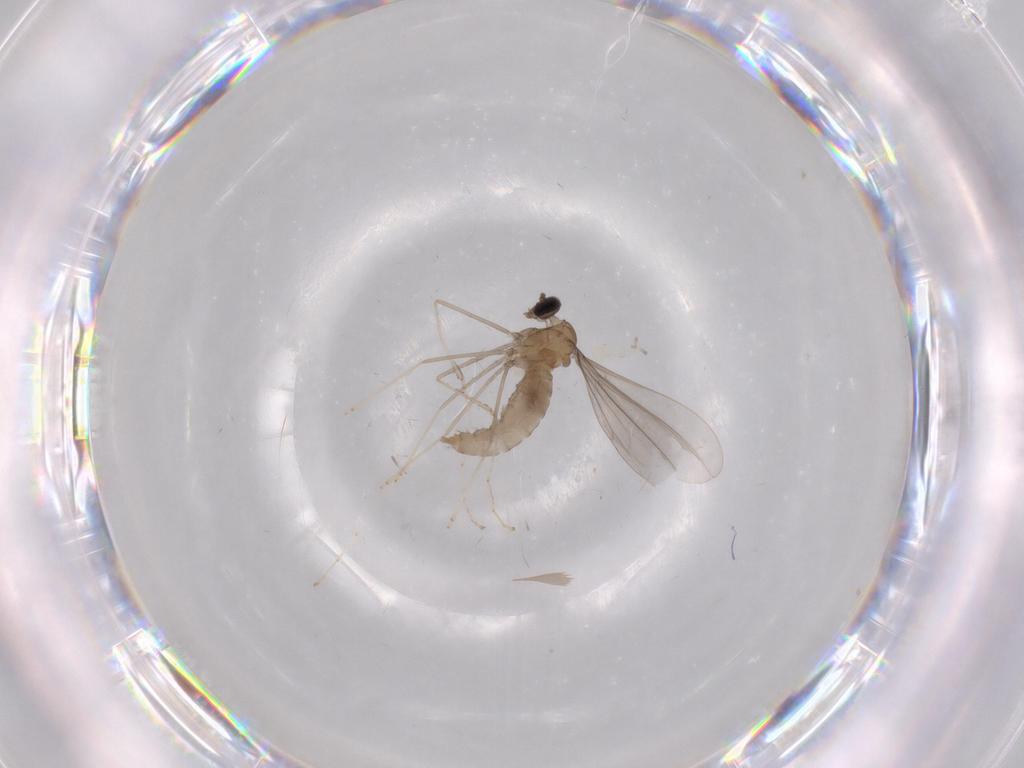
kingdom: Animalia
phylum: Arthropoda
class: Insecta
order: Diptera
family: Limoniidae
